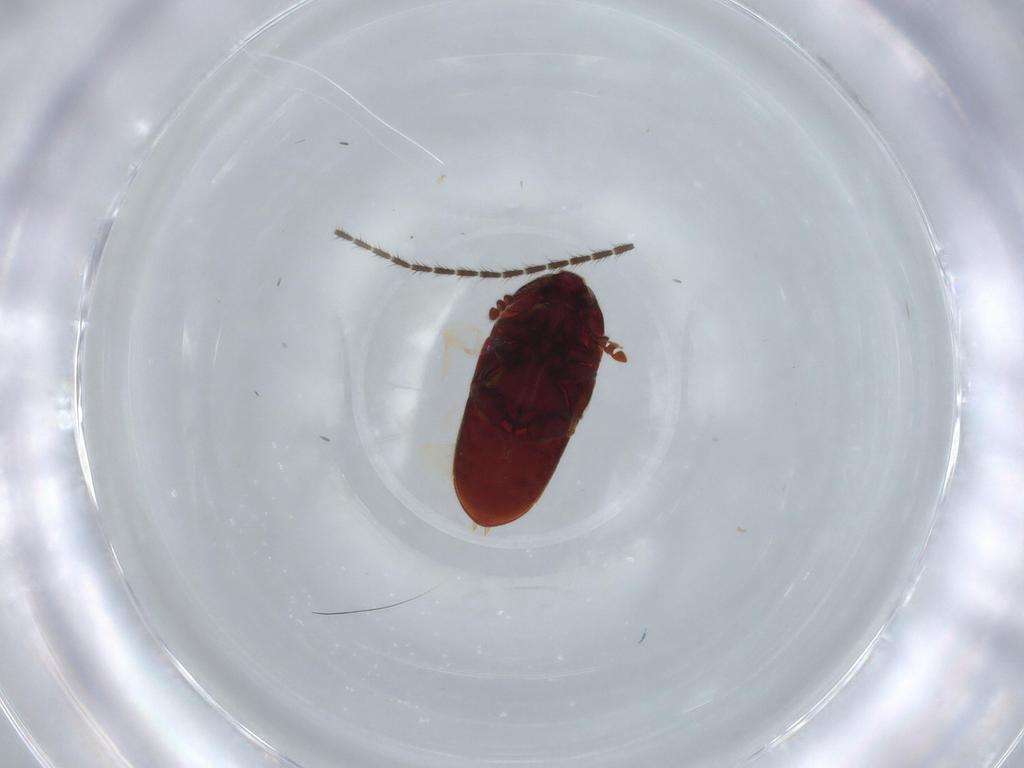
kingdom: Animalia
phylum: Arthropoda
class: Insecta
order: Coleoptera
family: Throscidae
